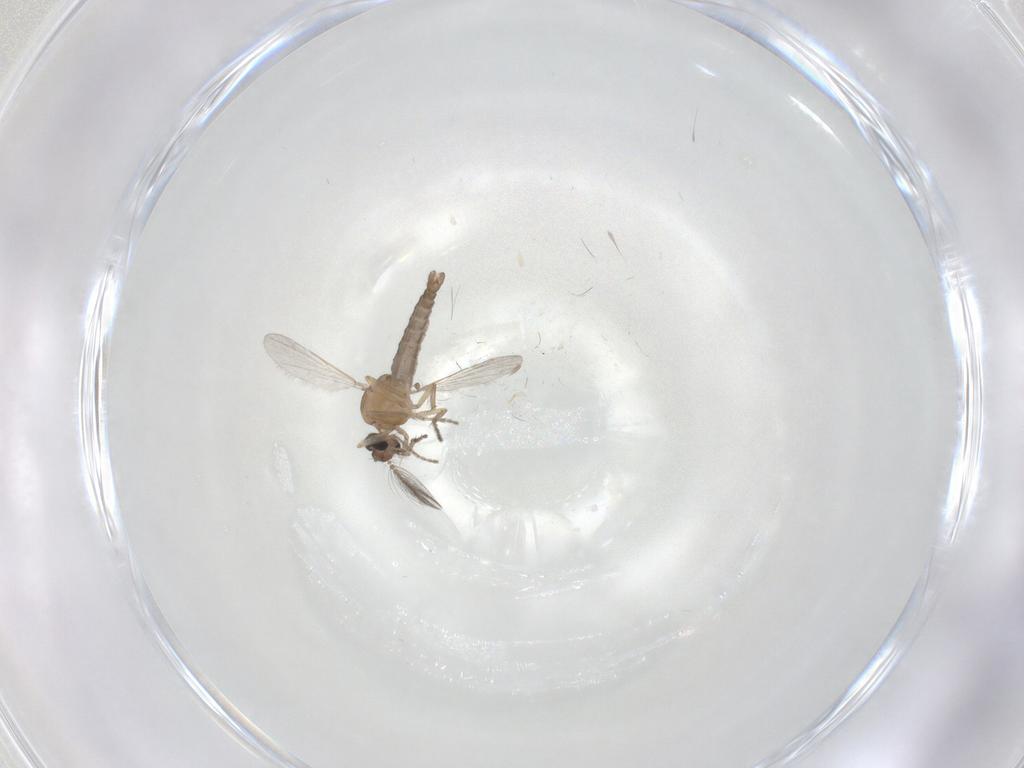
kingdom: Animalia
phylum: Arthropoda
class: Insecta
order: Diptera
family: Ceratopogonidae
